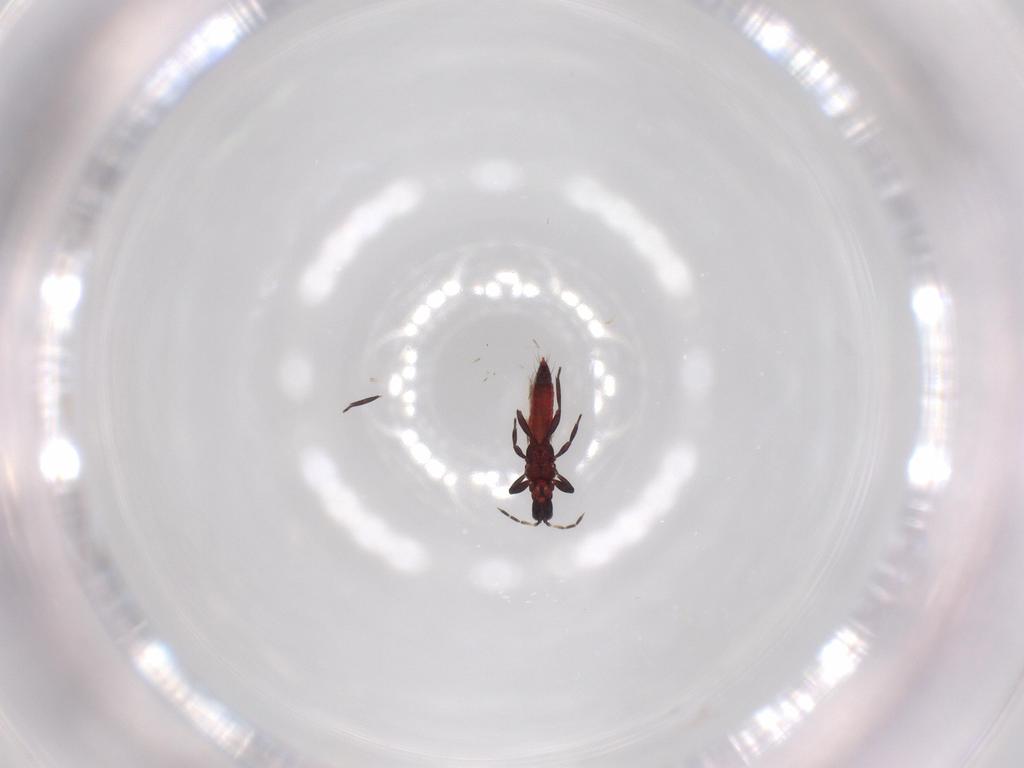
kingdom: Animalia
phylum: Arthropoda
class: Insecta
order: Thysanoptera
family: Aeolothripidae
